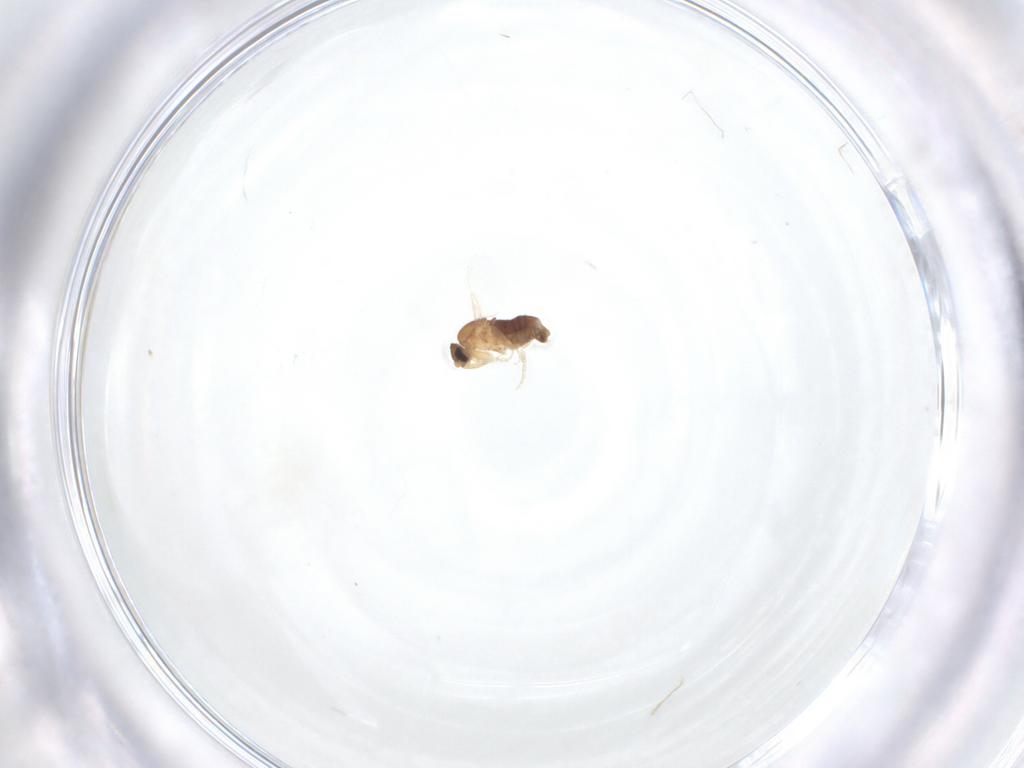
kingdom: Animalia
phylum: Arthropoda
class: Insecta
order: Diptera
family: Phoridae
